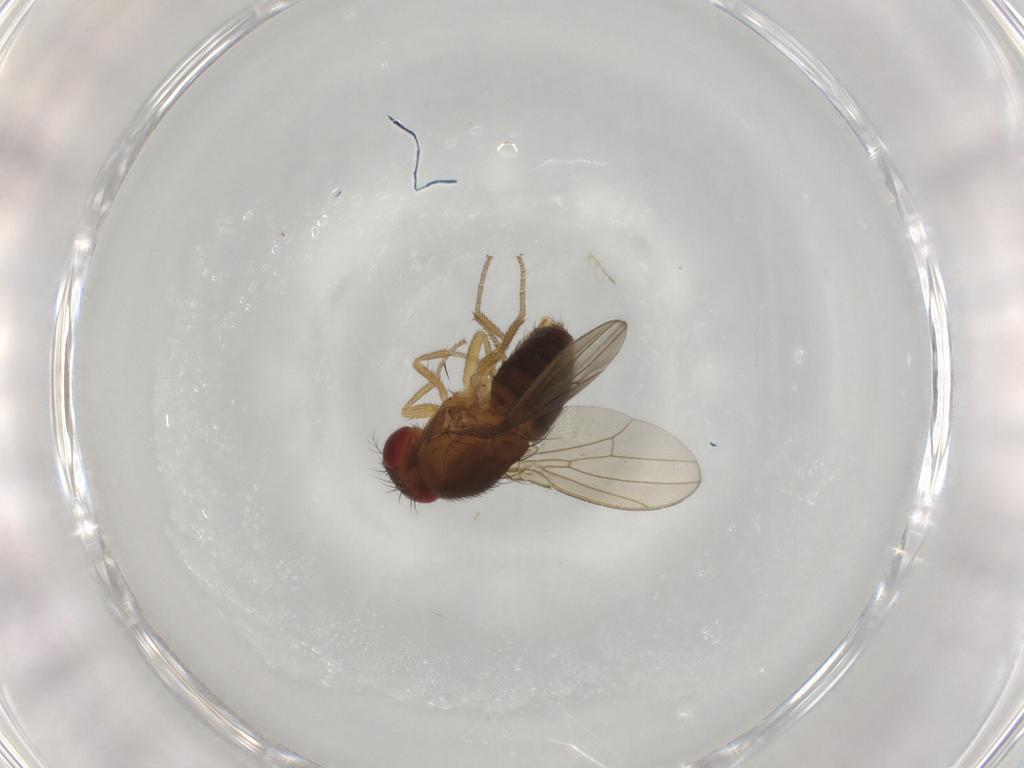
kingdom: Animalia
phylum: Arthropoda
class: Insecta
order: Diptera
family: Drosophilidae
